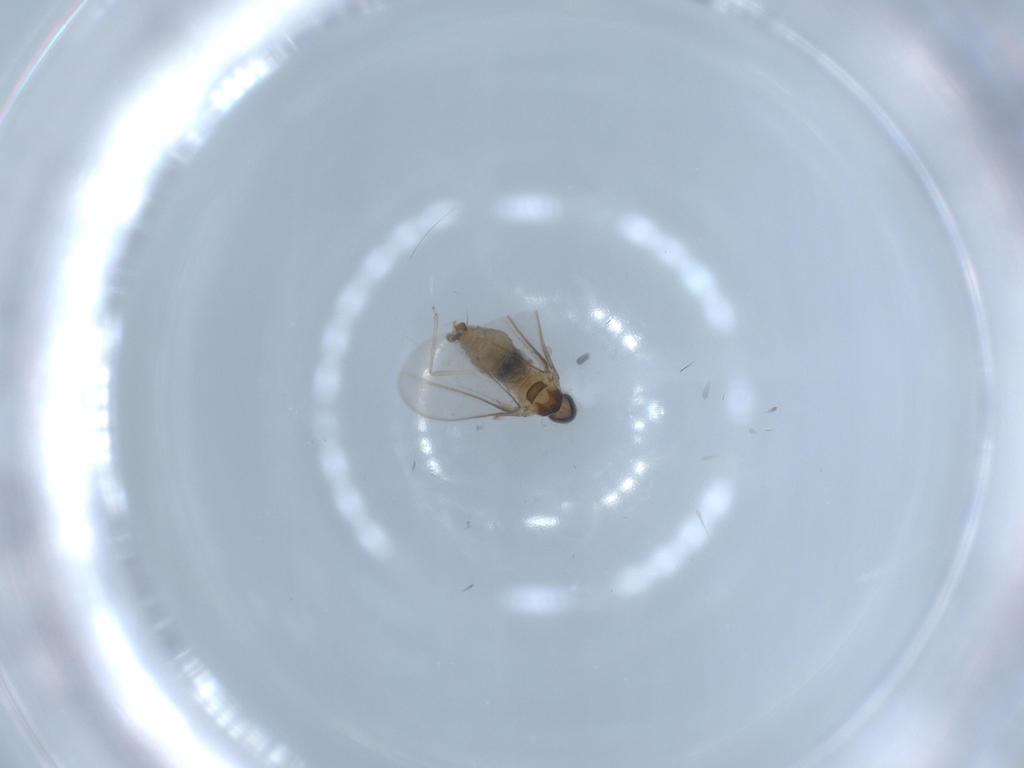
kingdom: Animalia
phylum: Arthropoda
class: Insecta
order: Diptera
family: Cecidomyiidae
